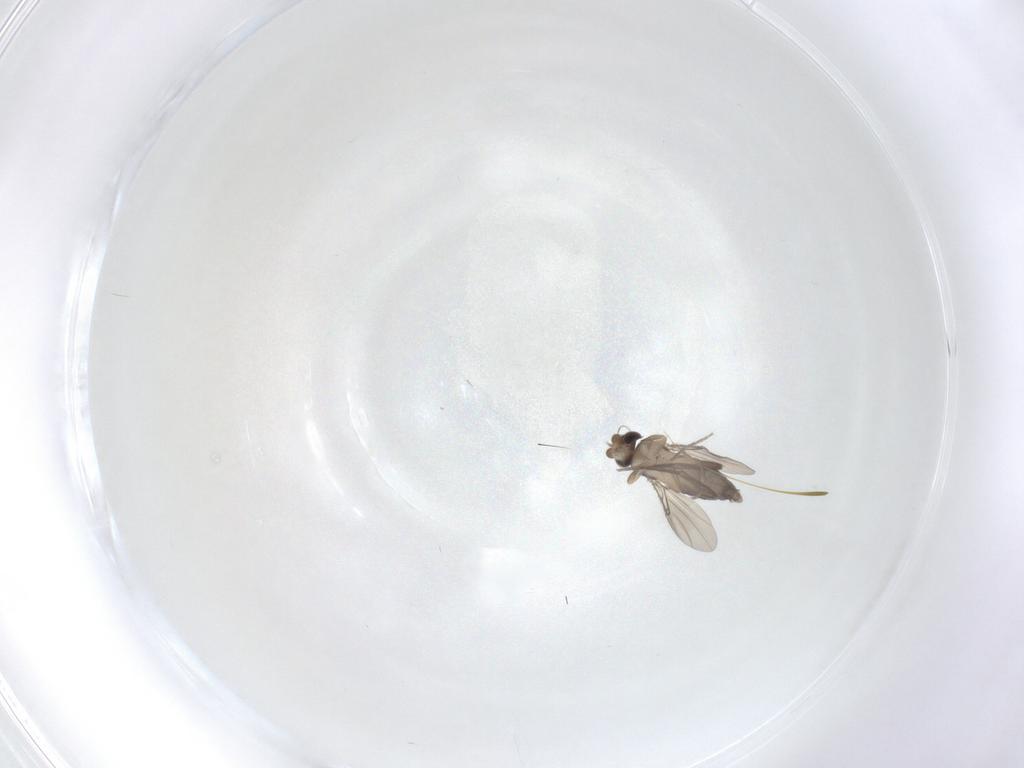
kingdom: Animalia
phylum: Arthropoda
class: Insecta
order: Diptera
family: Phoridae
